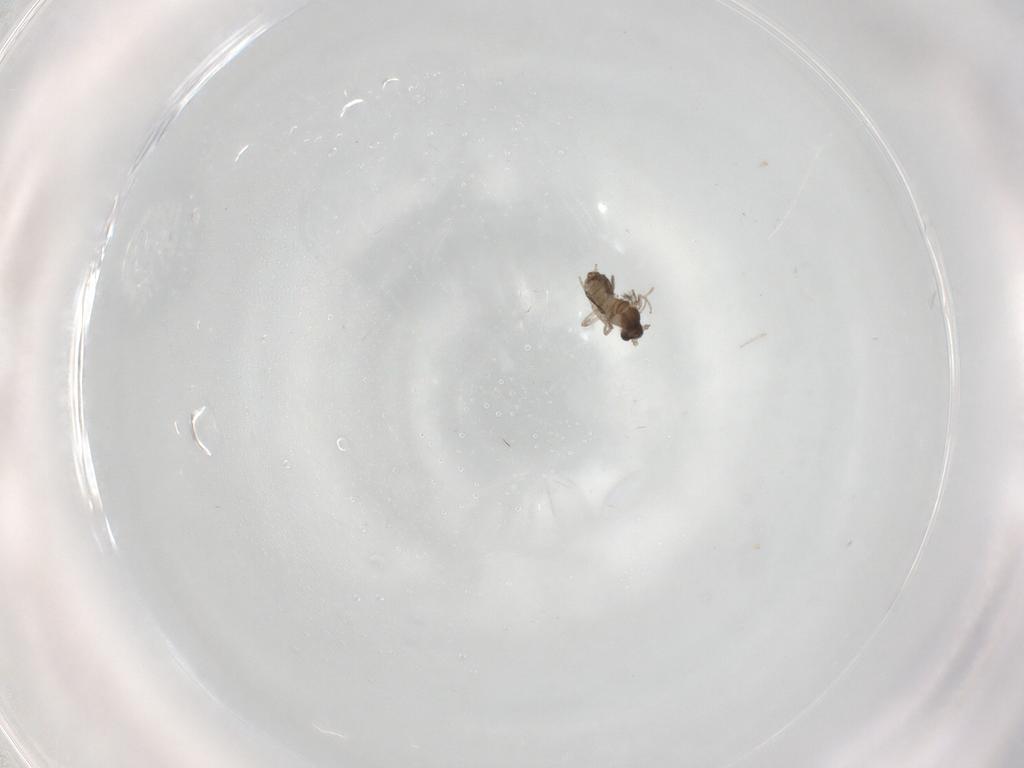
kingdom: Animalia
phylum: Arthropoda
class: Insecta
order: Diptera
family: Cecidomyiidae
